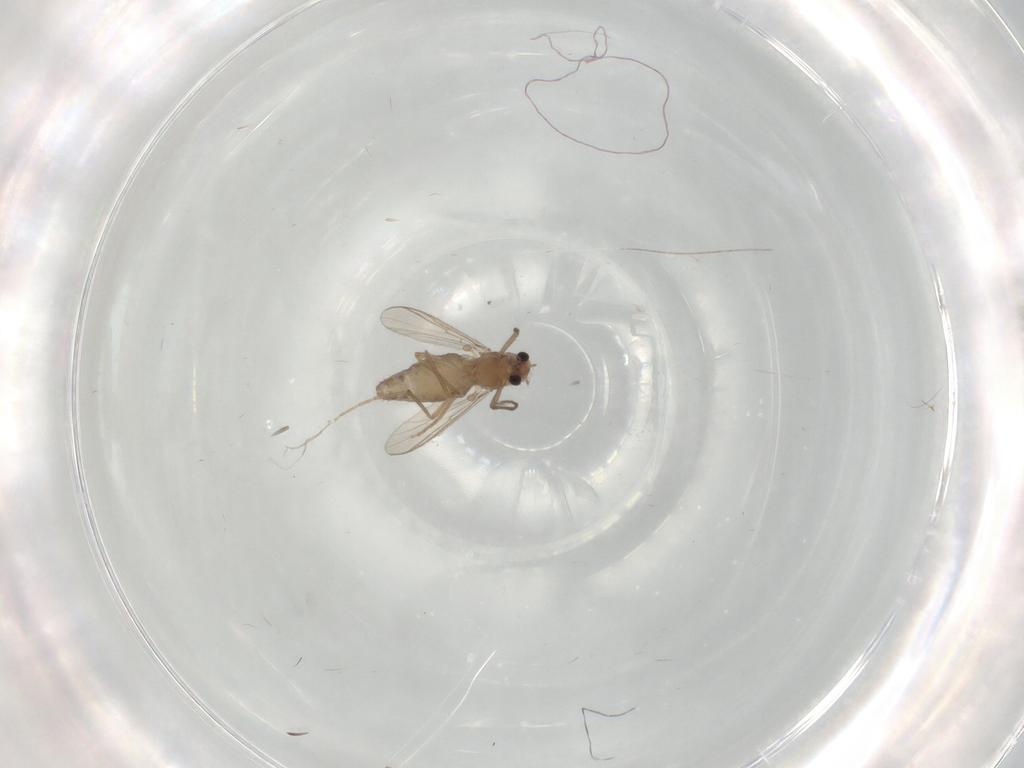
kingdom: Animalia
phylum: Arthropoda
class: Insecta
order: Diptera
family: Chironomidae
